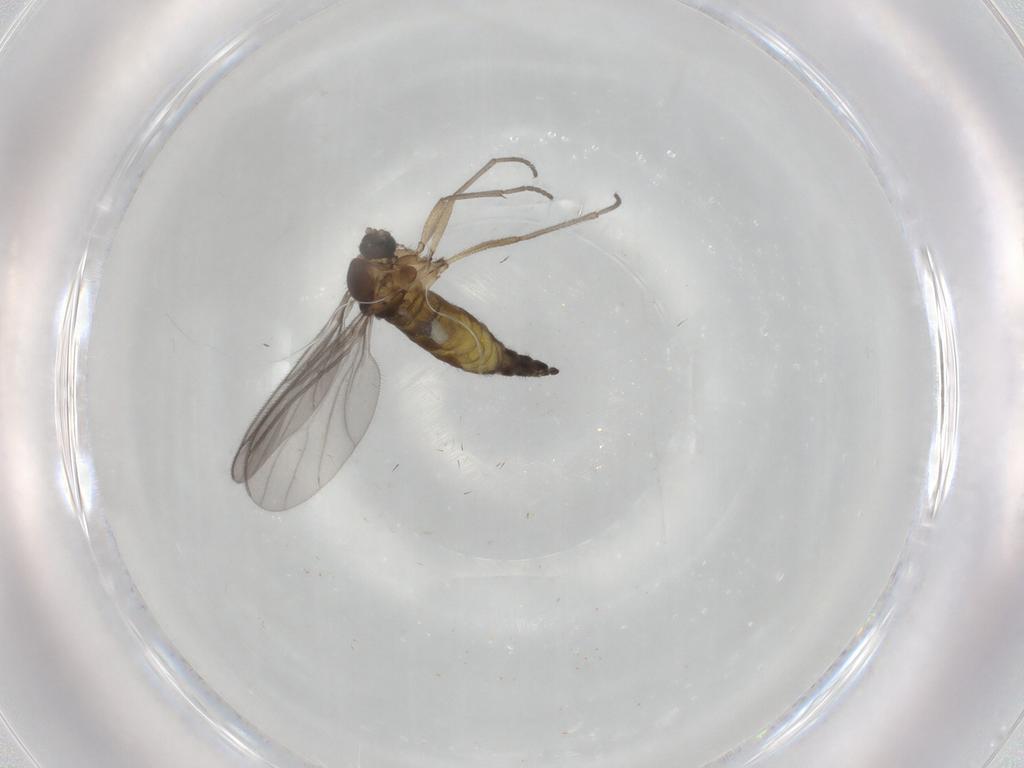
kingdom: Animalia
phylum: Arthropoda
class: Insecta
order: Diptera
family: Sciaridae
